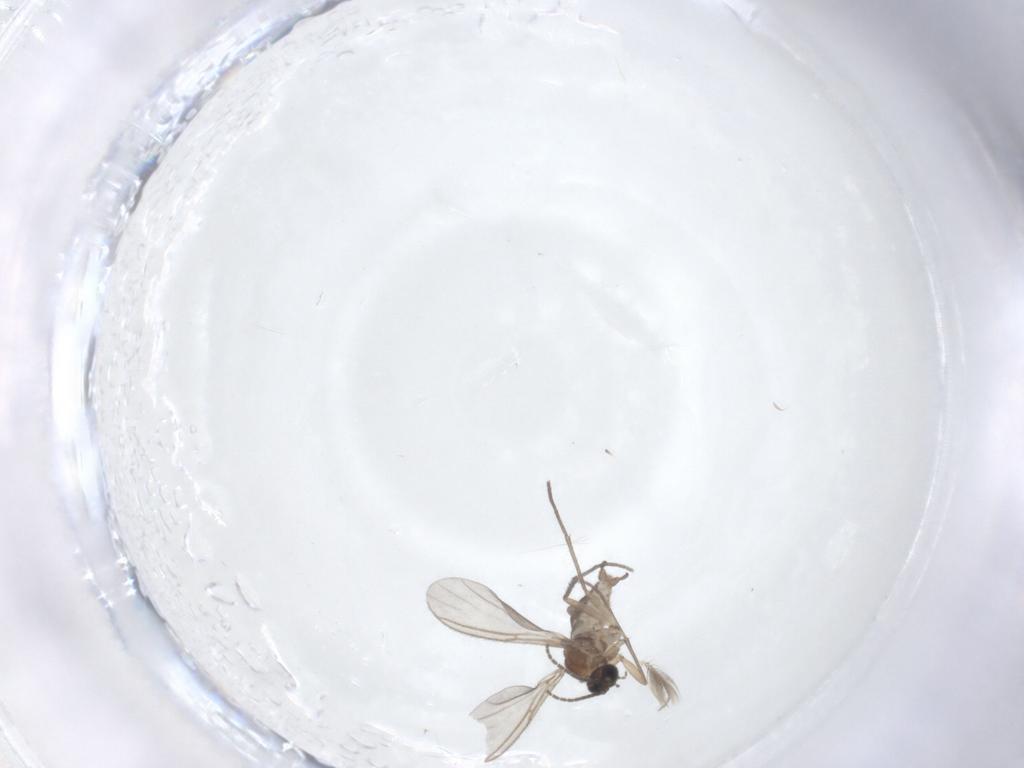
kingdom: Animalia
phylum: Arthropoda
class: Insecta
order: Diptera
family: Sciaridae
